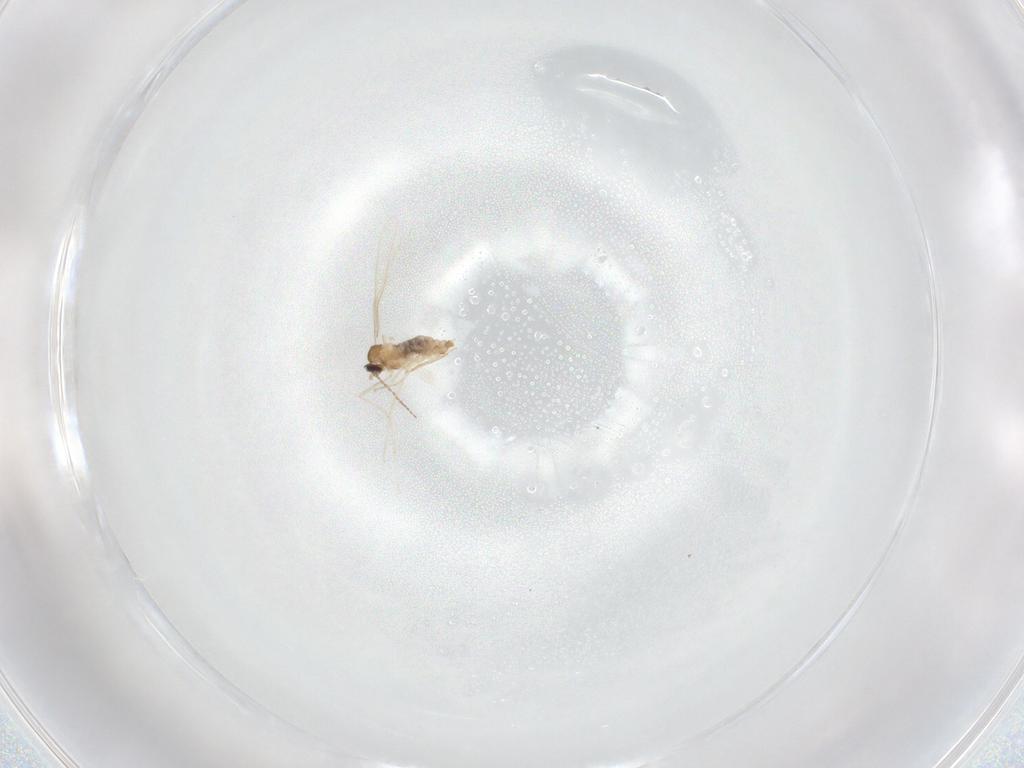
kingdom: Animalia
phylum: Arthropoda
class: Insecta
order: Diptera
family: Cecidomyiidae
